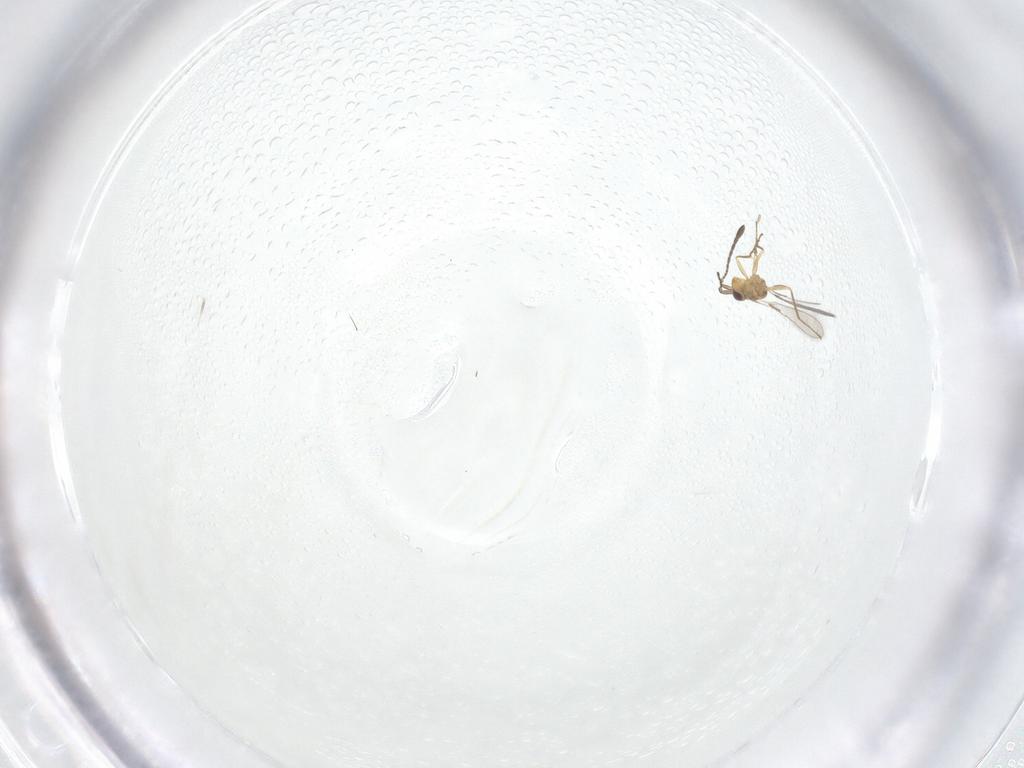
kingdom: Animalia
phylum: Arthropoda
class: Insecta
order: Hymenoptera
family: Mymaridae
